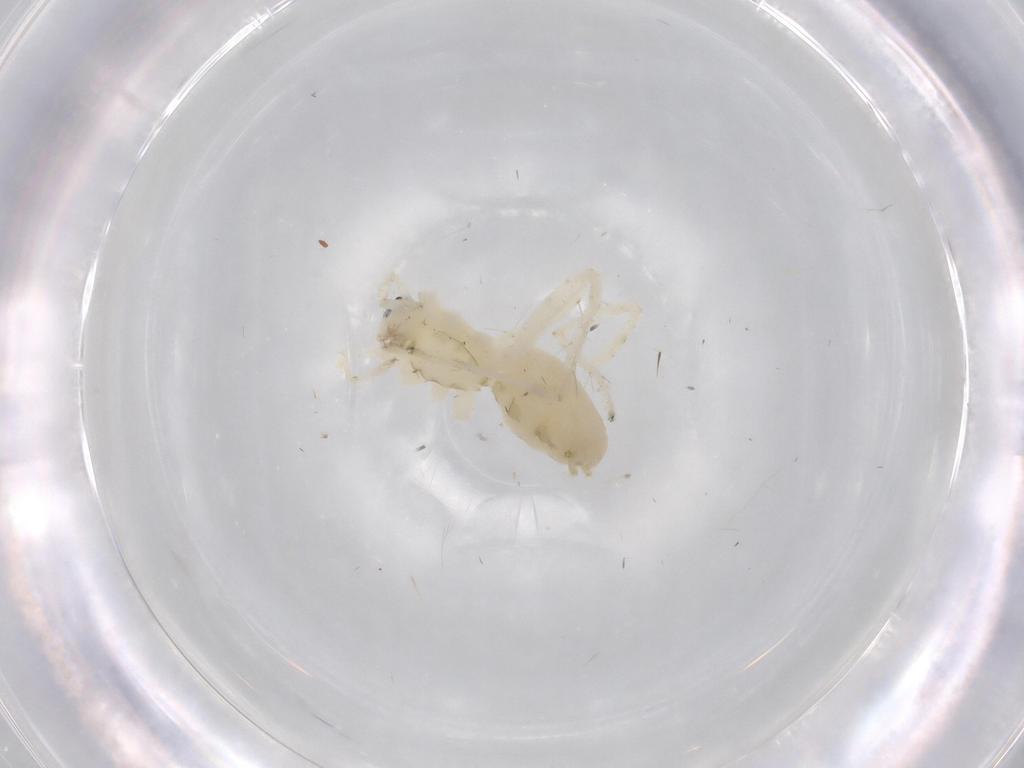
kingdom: Animalia
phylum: Arthropoda
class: Arachnida
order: Araneae
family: Anyphaenidae
